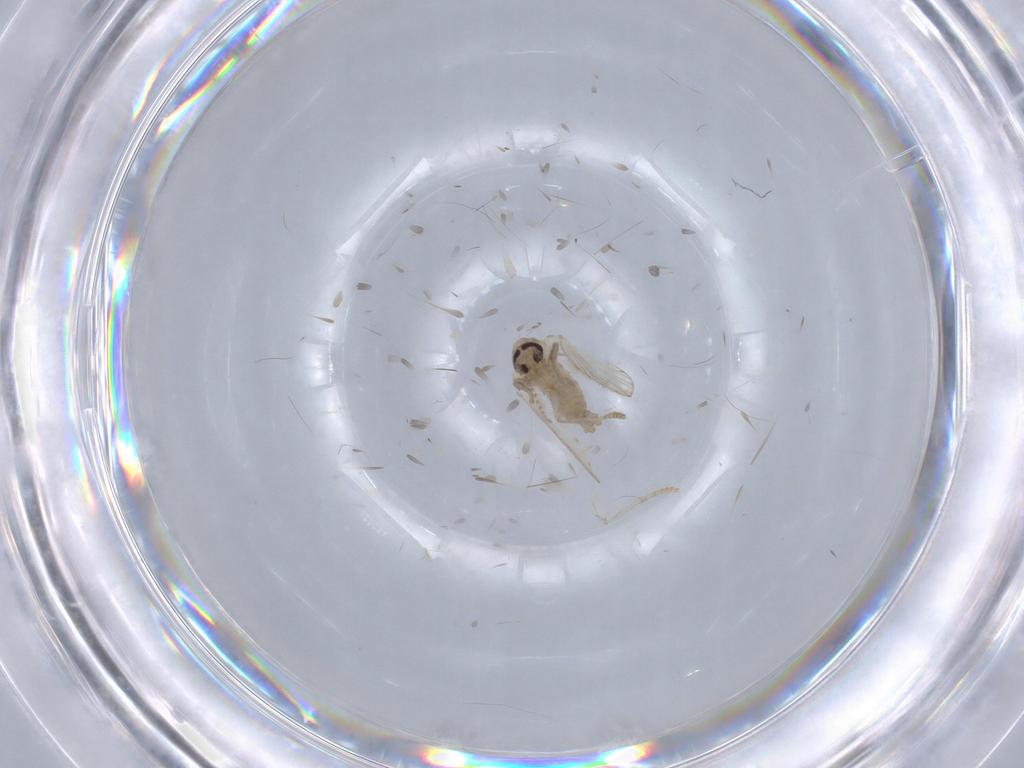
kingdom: Animalia
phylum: Arthropoda
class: Insecta
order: Diptera
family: Psychodidae
